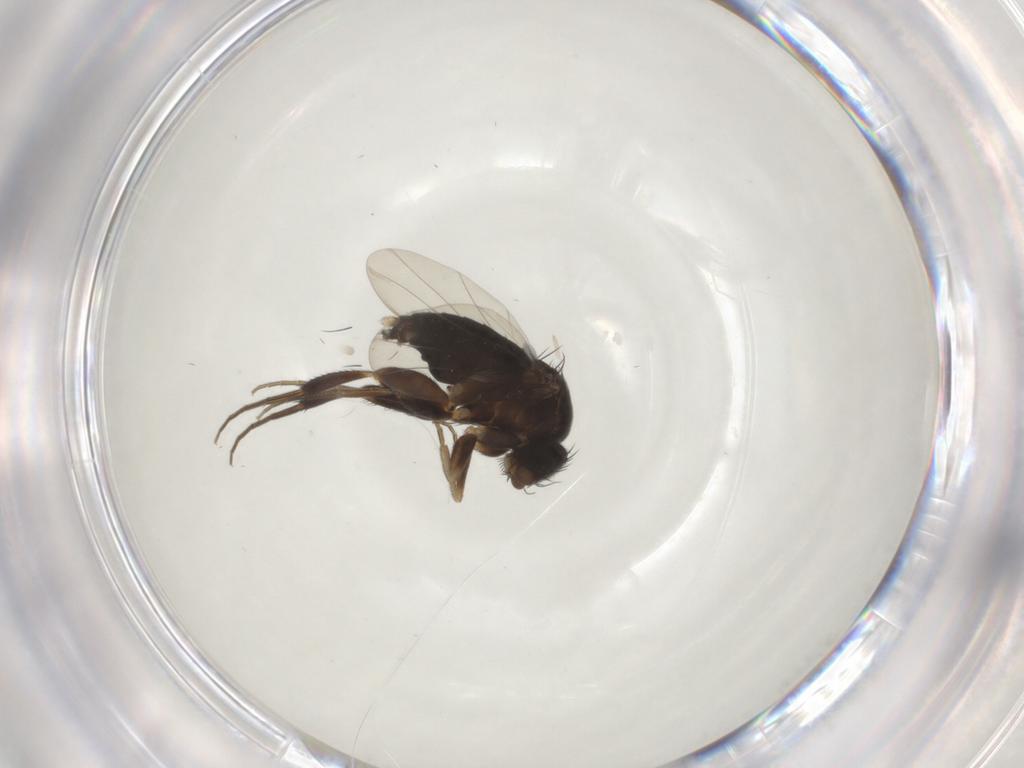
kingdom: Animalia
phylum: Arthropoda
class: Insecta
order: Diptera
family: Phoridae
